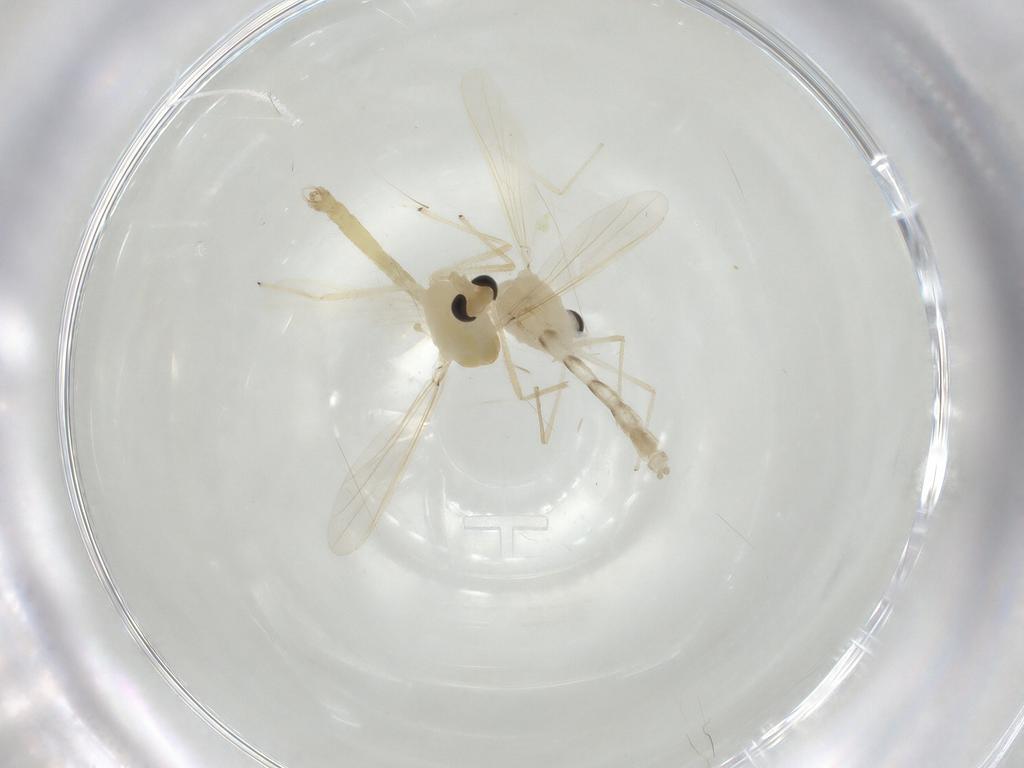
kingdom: Animalia
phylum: Arthropoda
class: Insecta
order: Diptera
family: Chironomidae
